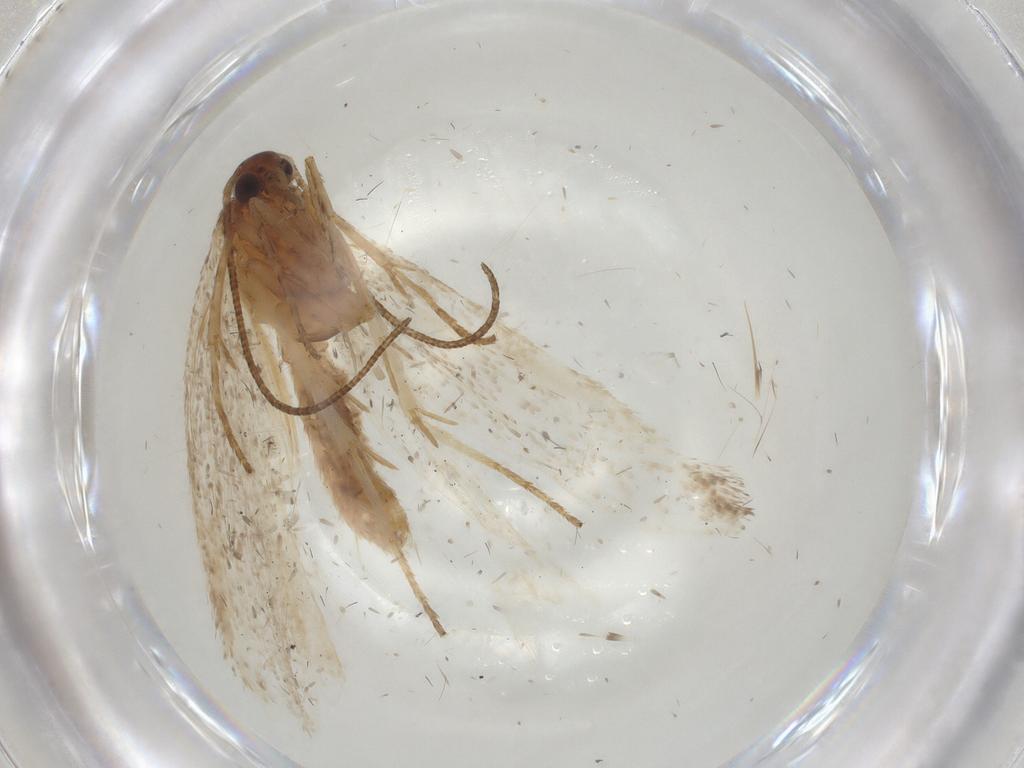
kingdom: Animalia
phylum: Arthropoda
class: Insecta
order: Lepidoptera
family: Gelechiidae
